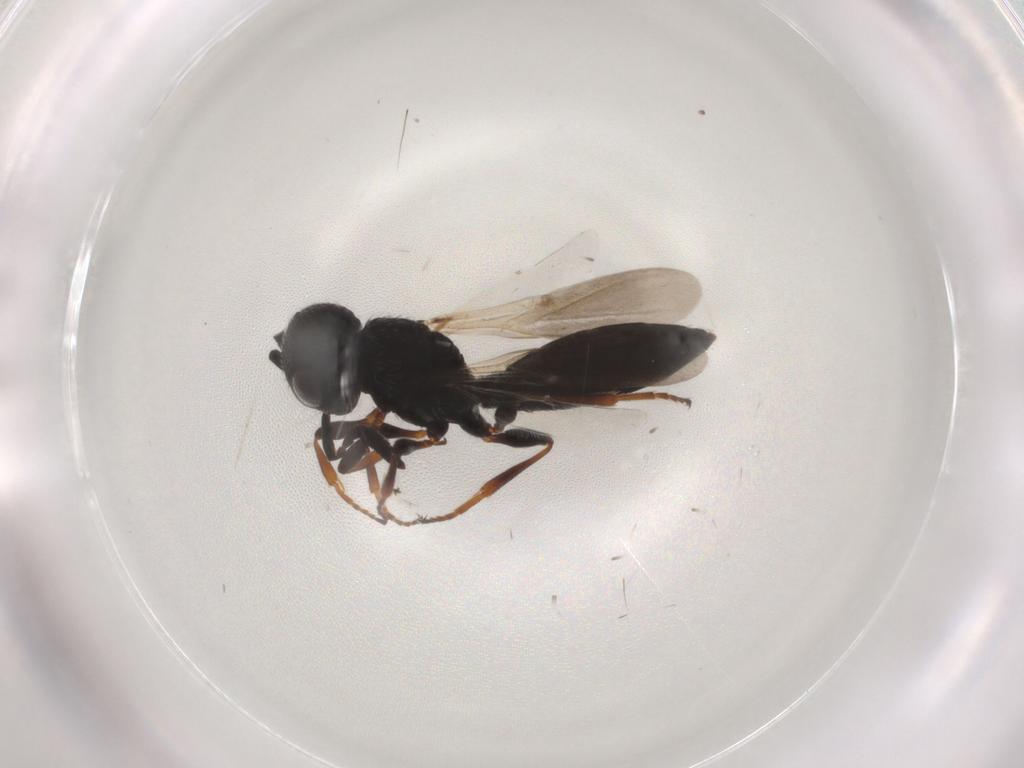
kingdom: Animalia
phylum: Arthropoda
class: Insecta
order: Hymenoptera
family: Scelionidae
